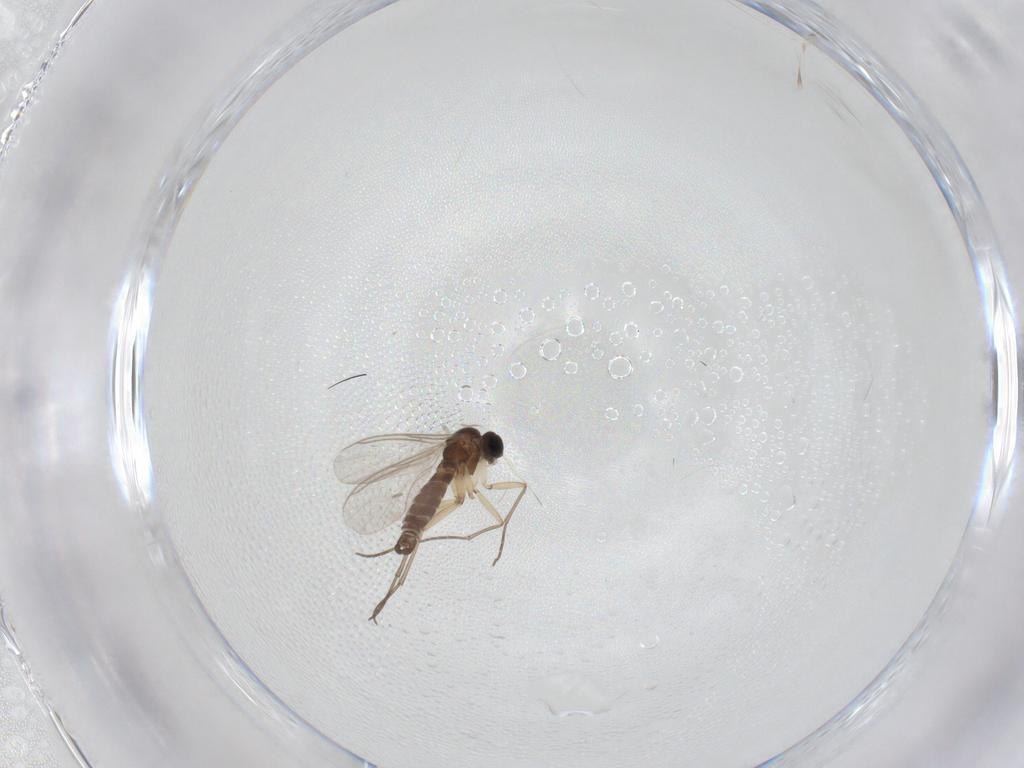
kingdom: Animalia
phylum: Arthropoda
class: Insecta
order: Diptera
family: Sciaridae
